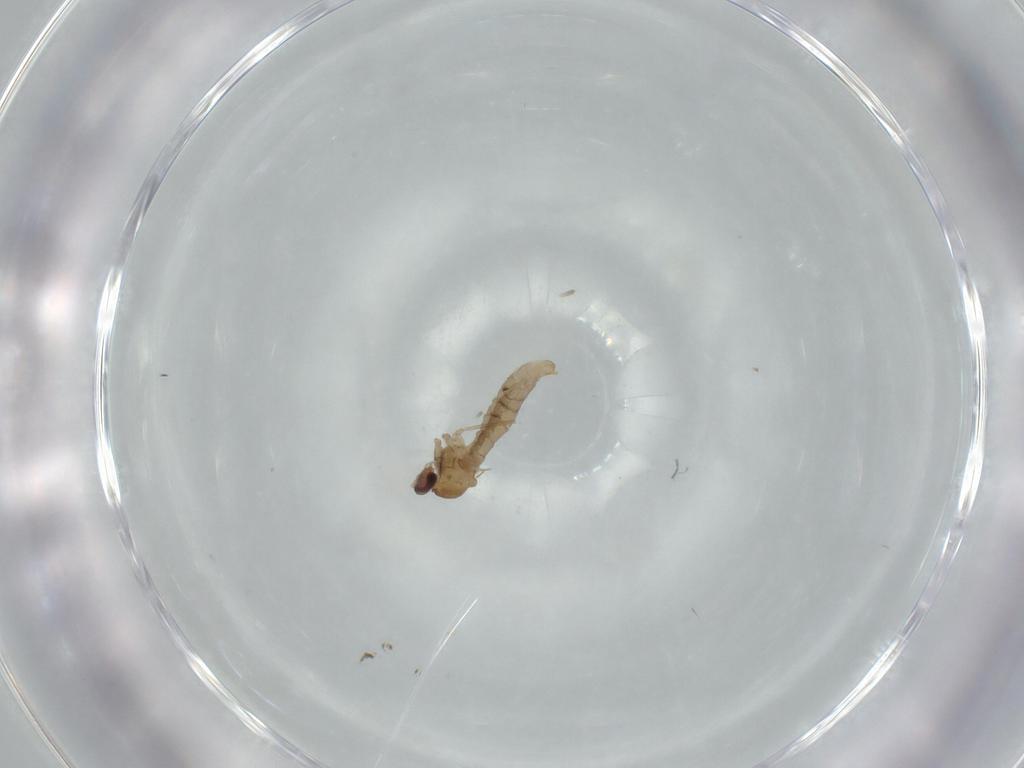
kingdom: Animalia
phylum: Arthropoda
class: Insecta
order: Diptera
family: Cecidomyiidae
